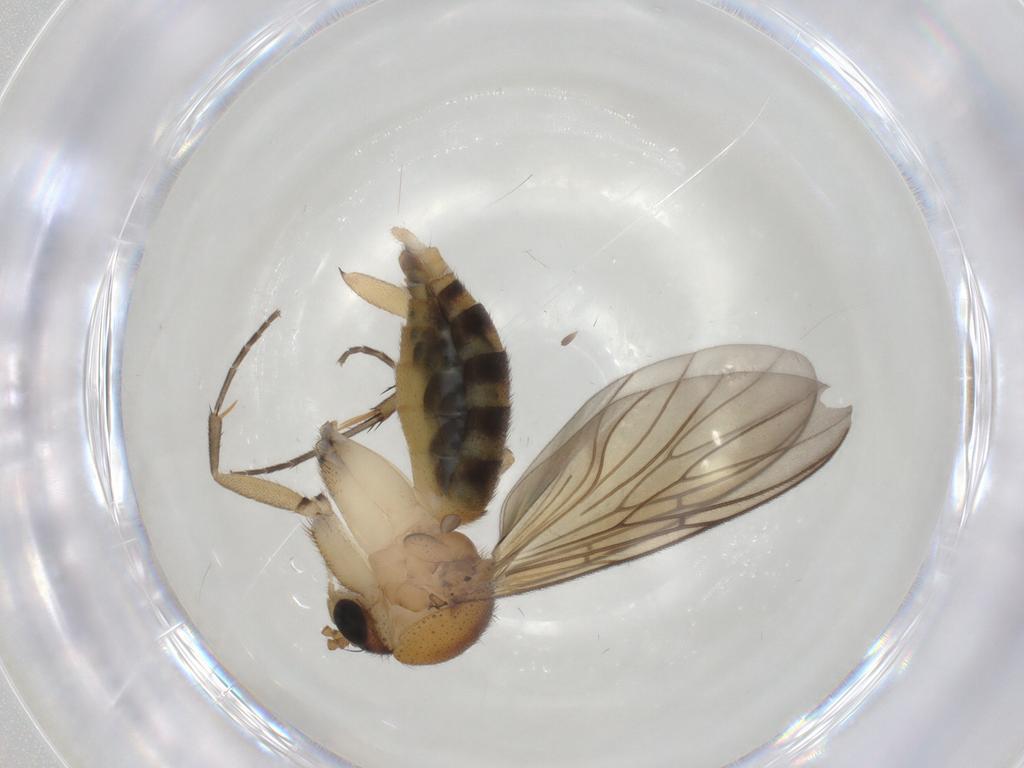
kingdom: Animalia
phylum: Arthropoda
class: Insecta
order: Diptera
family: Mycetophilidae
